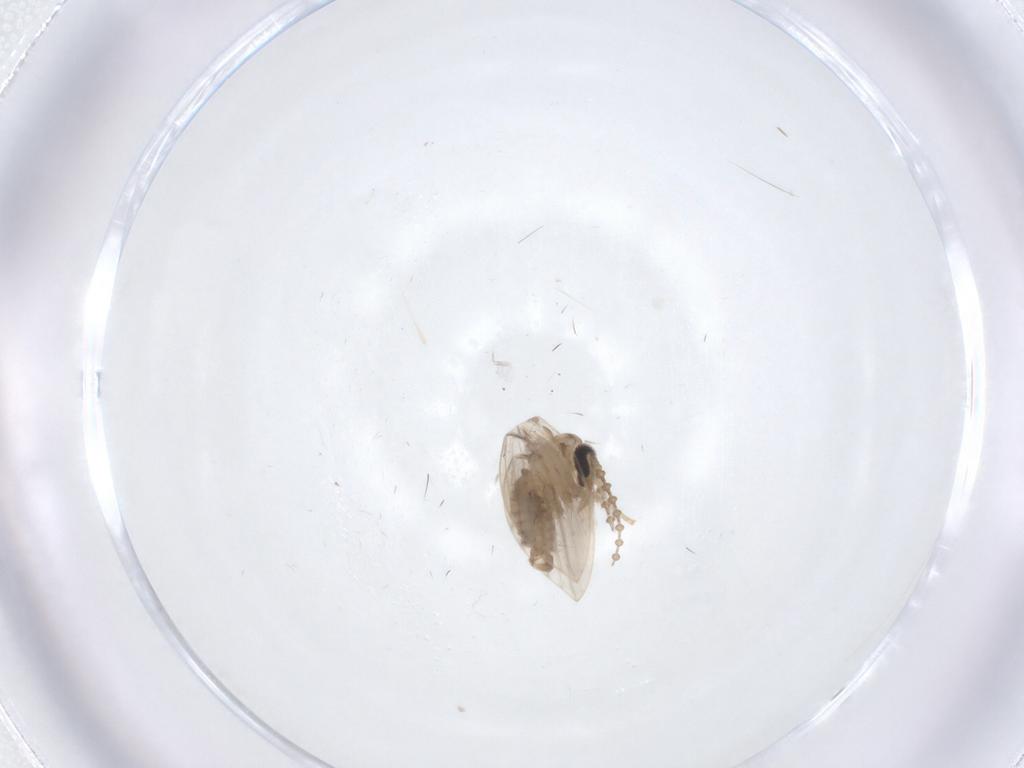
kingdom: Animalia
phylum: Arthropoda
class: Insecta
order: Diptera
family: Psychodidae
